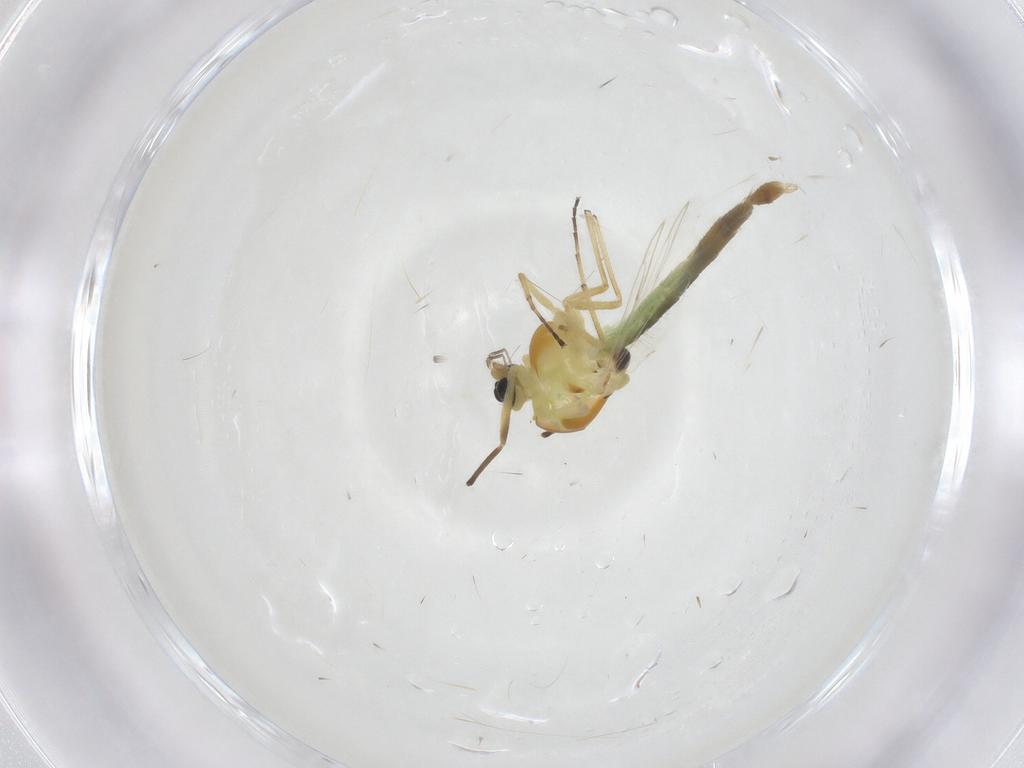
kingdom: Animalia
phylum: Arthropoda
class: Insecta
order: Diptera
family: Chironomidae
